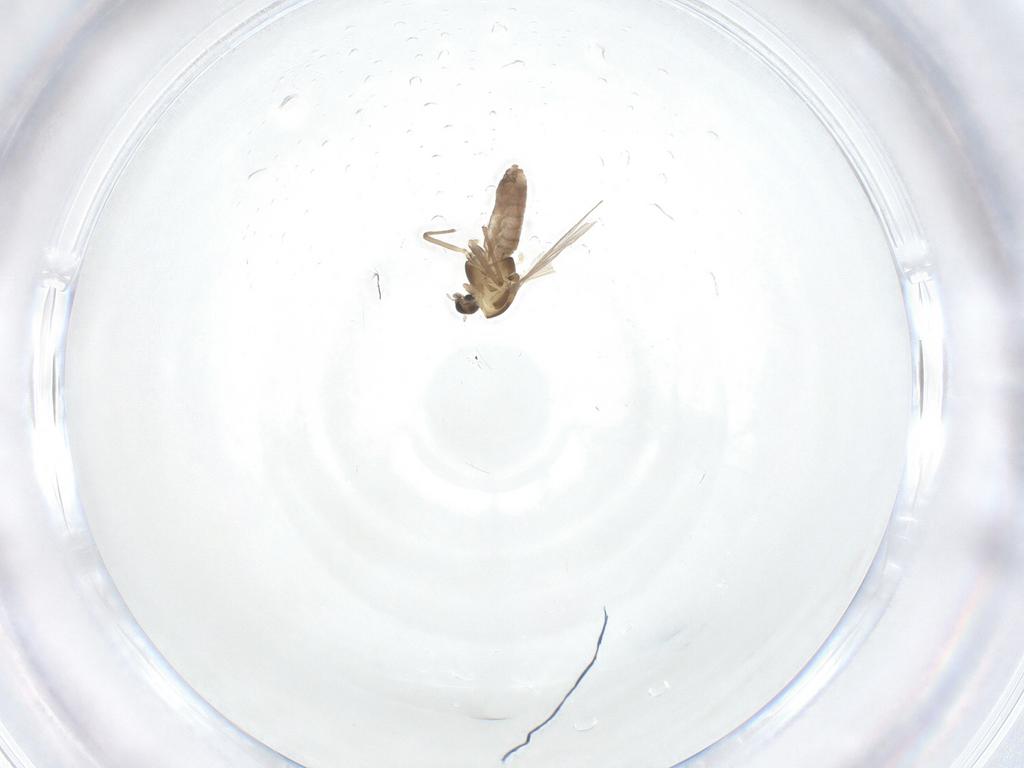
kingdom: Animalia
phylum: Arthropoda
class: Insecta
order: Diptera
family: Chironomidae
